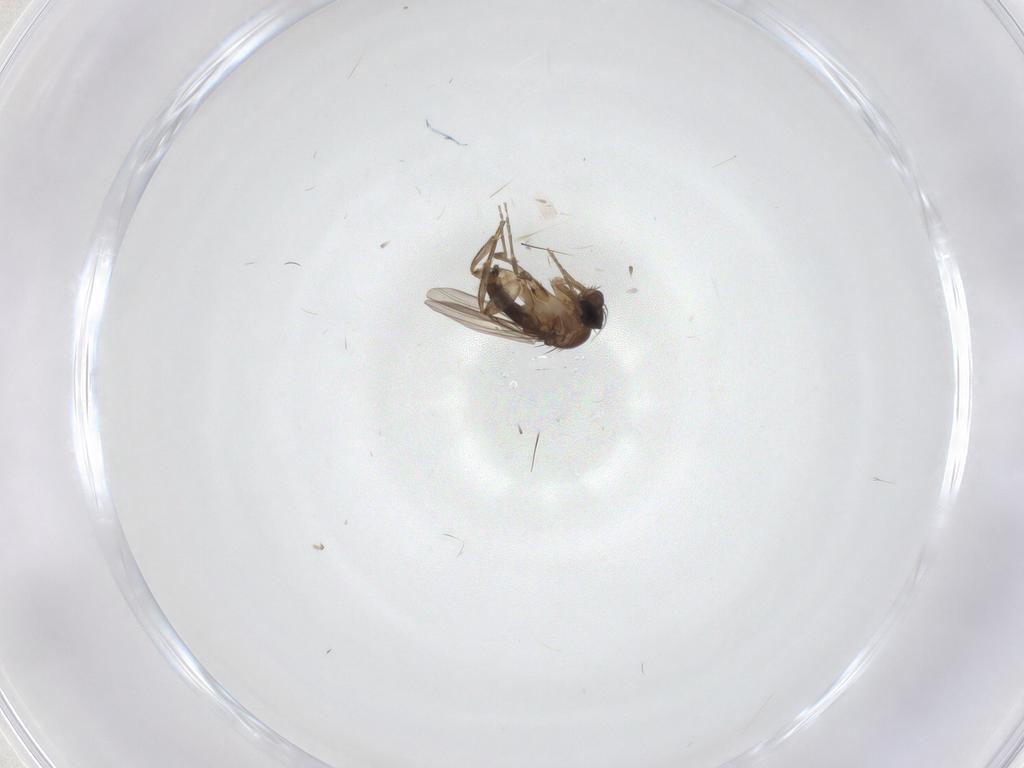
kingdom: Animalia
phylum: Arthropoda
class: Insecta
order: Diptera
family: Phoridae
